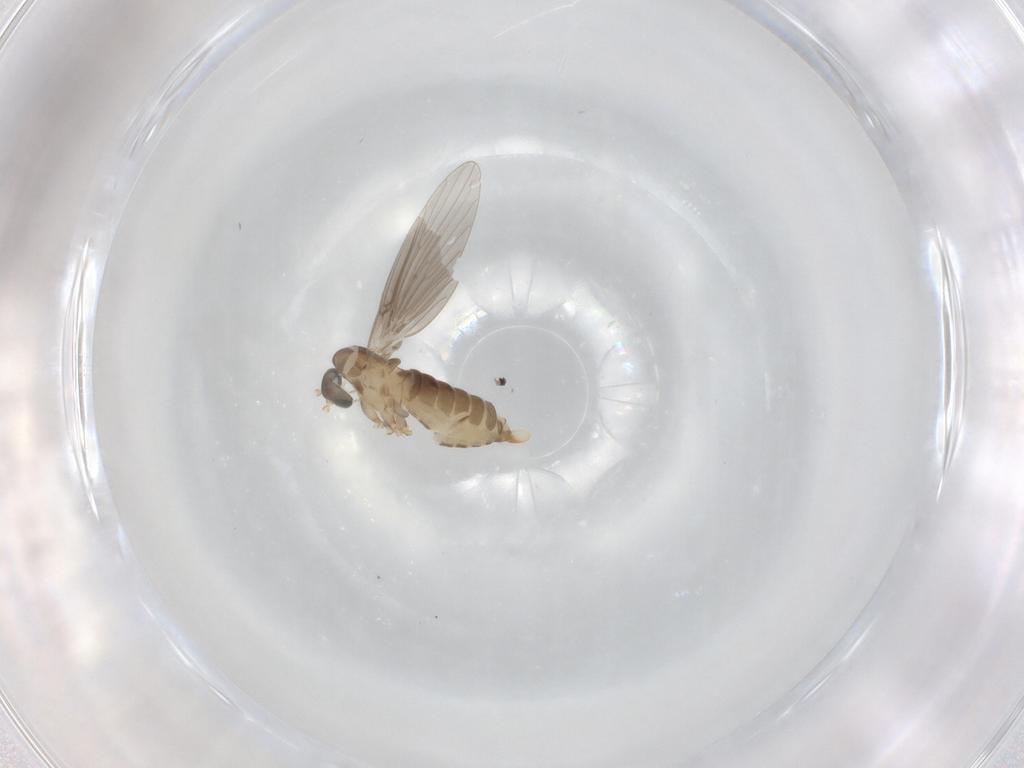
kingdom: Animalia
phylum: Arthropoda
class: Insecta
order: Diptera
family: Psychodidae
